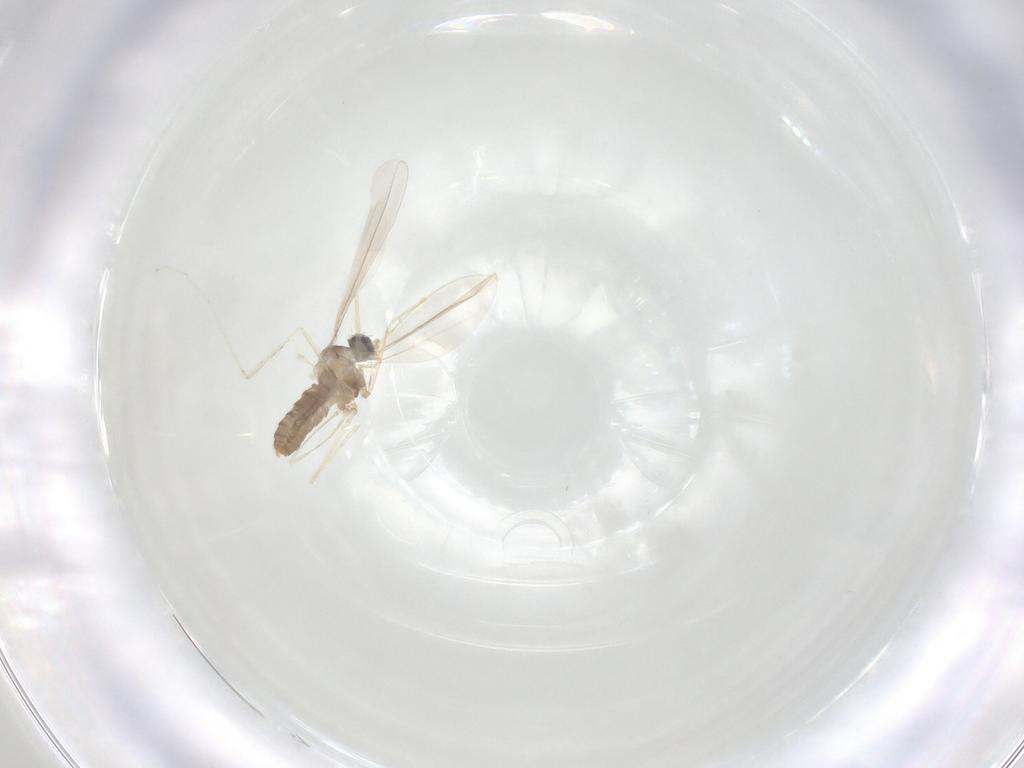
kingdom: Animalia
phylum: Arthropoda
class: Insecta
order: Diptera
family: Cecidomyiidae
